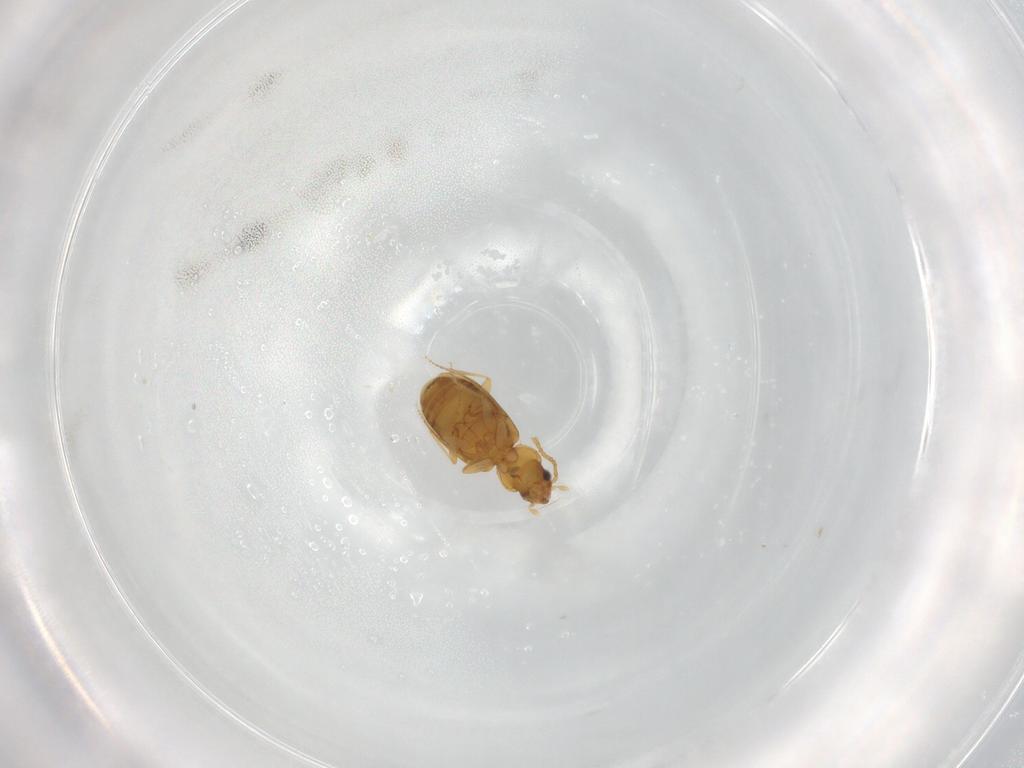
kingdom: Animalia
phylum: Arthropoda
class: Insecta
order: Coleoptera
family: Carabidae
